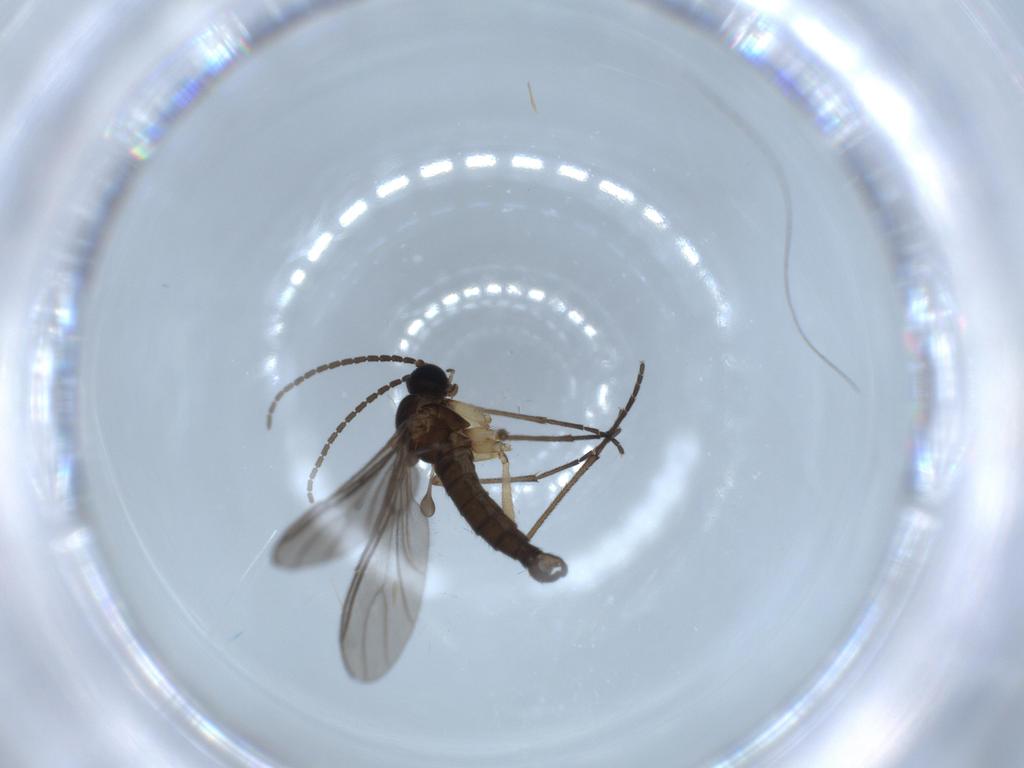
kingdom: Animalia
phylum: Arthropoda
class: Insecta
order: Diptera
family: Sciaridae
